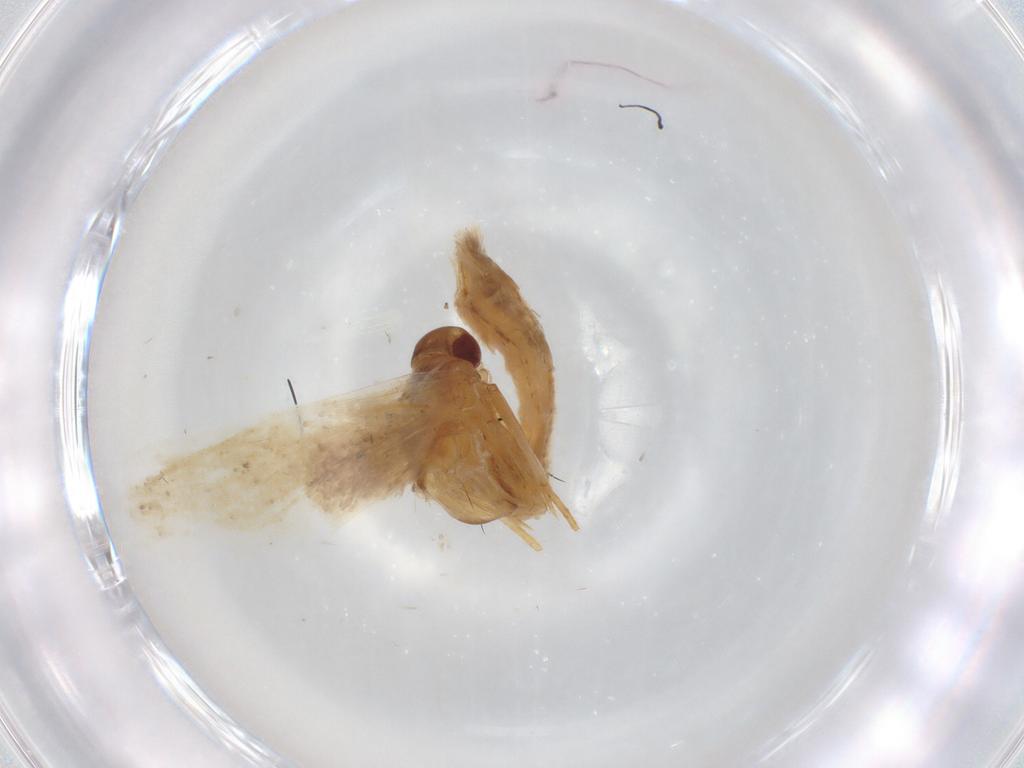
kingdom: Animalia
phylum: Arthropoda
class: Insecta
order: Lepidoptera
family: Gelechiidae
